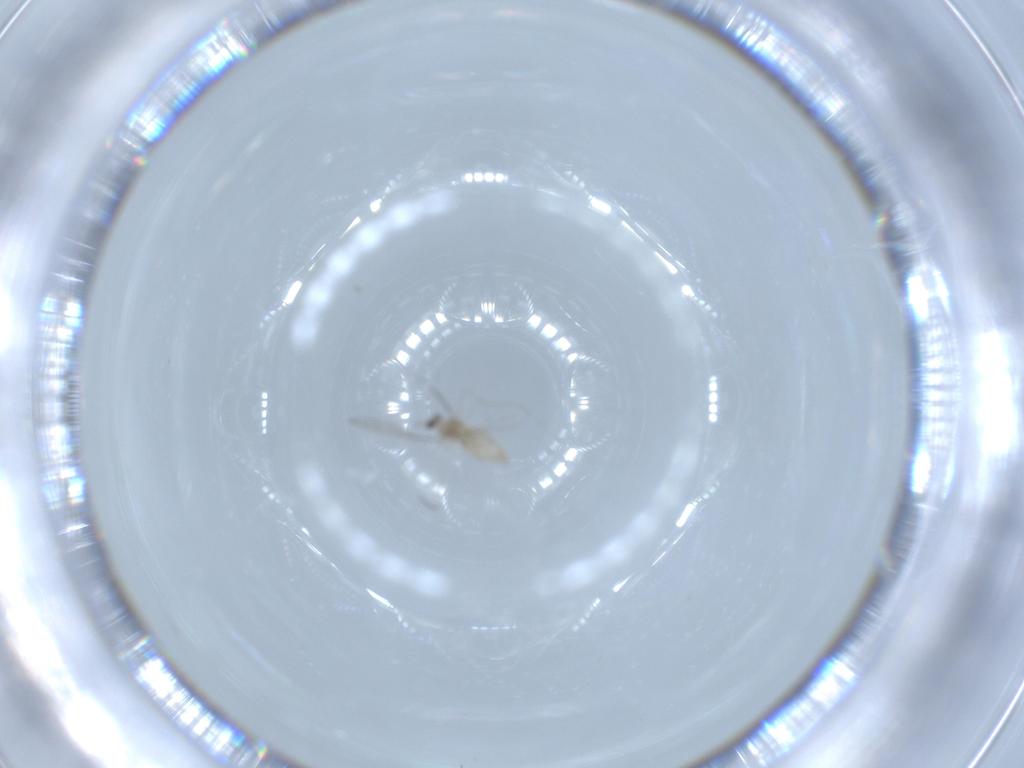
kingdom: Animalia
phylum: Arthropoda
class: Insecta
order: Diptera
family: Cecidomyiidae
